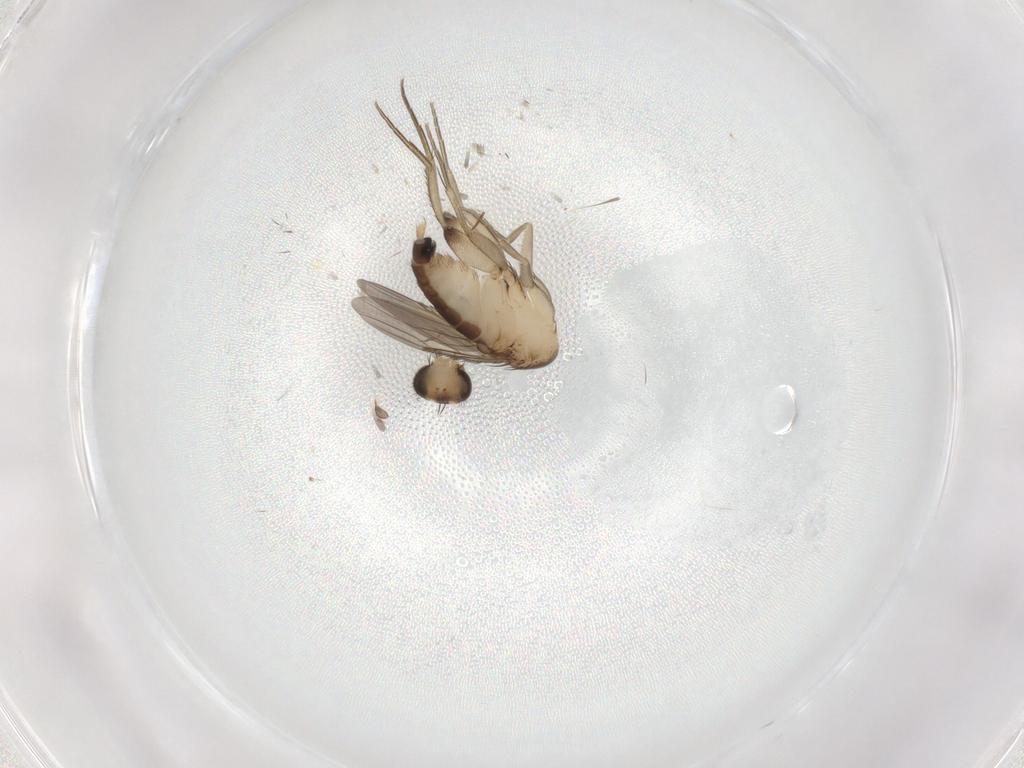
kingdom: Animalia
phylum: Arthropoda
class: Insecta
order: Diptera
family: Phoridae
